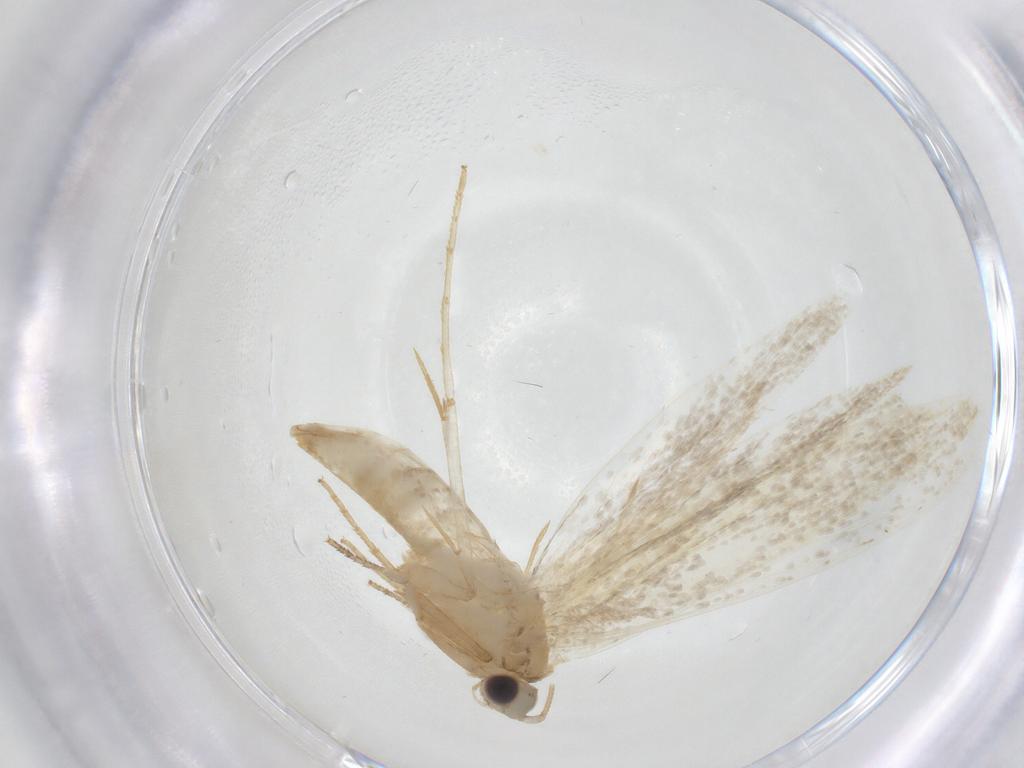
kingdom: Animalia
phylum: Arthropoda
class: Insecta
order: Lepidoptera
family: Tineidae
